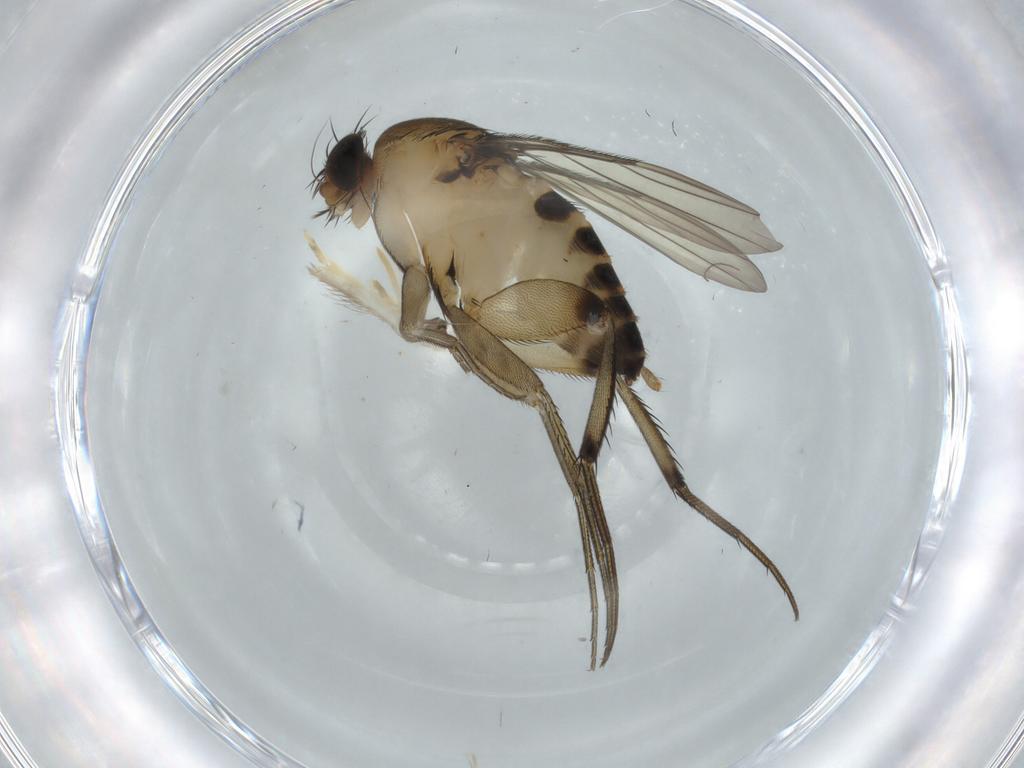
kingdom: Animalia
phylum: Arthropoda
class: Insecta
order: Diptera
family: Phoridae
